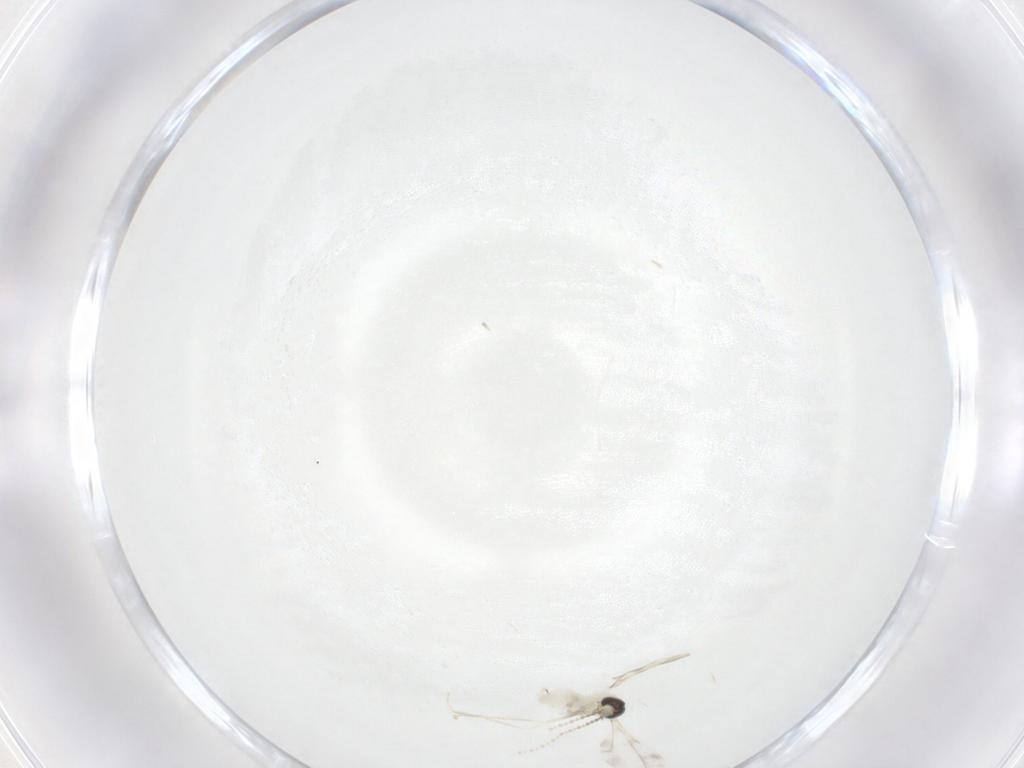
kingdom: Animalia
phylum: Arthropoda
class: Insecta
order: Diptera
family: Cecidomyiidae
